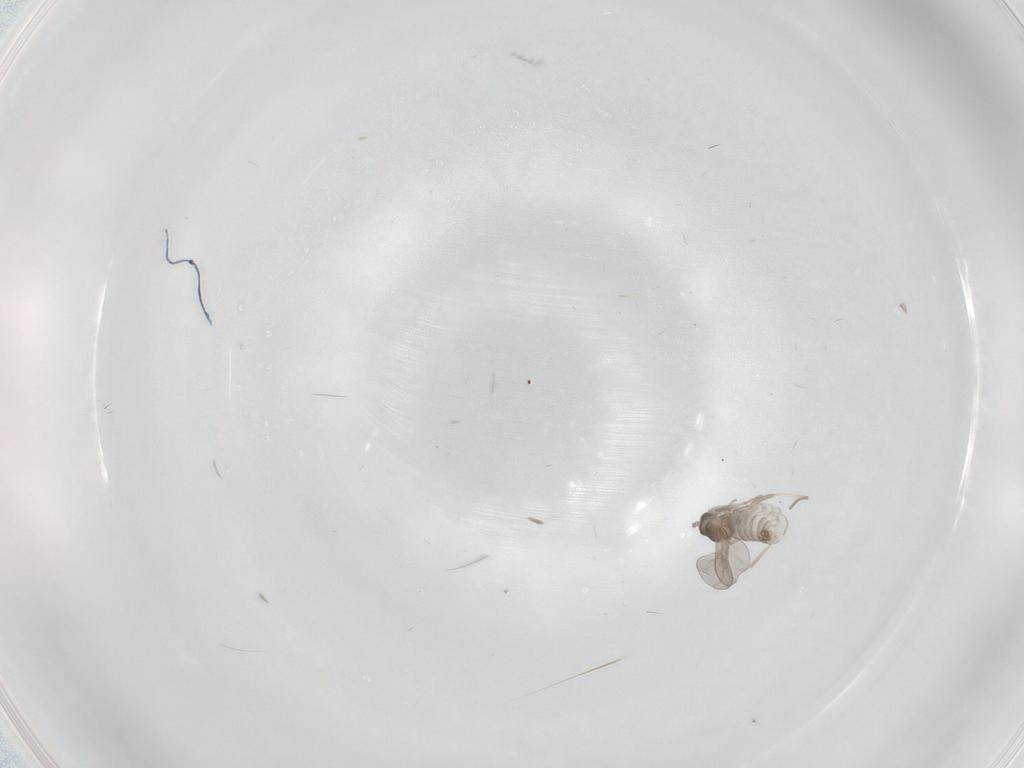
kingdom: Animalia
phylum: Arthropoda
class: Insecta
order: Diptera
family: Cecidomyiidae
